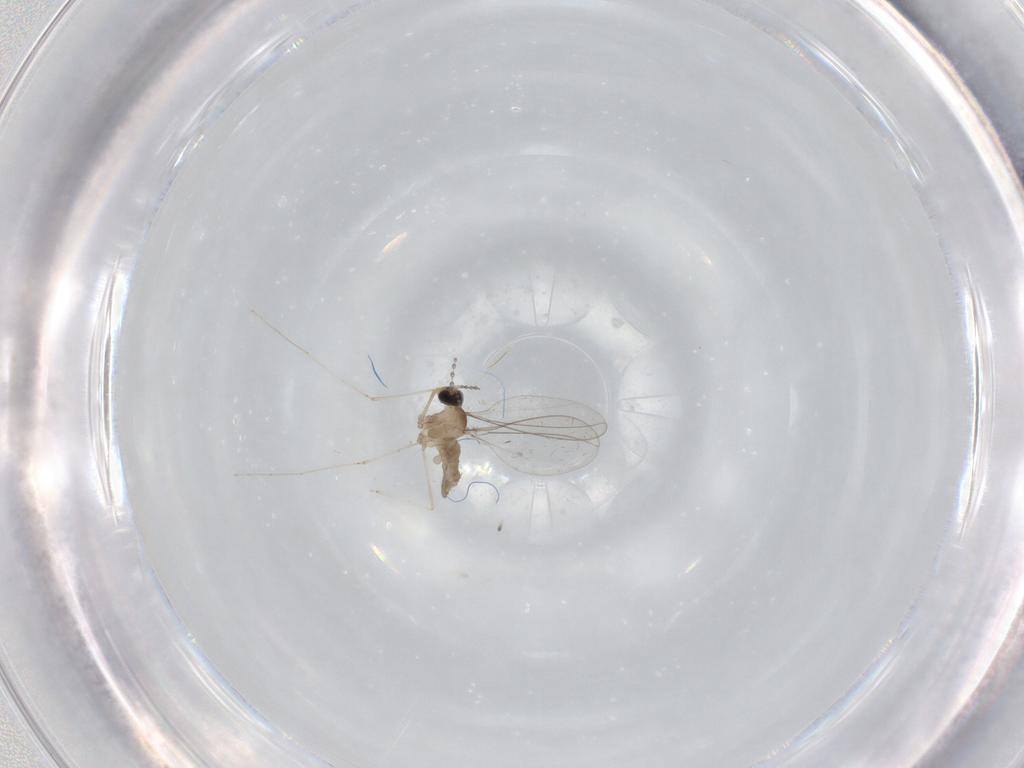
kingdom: Animalia
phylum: Arthropoda
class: Insecta
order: Diptera
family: Cecidomyiidae
